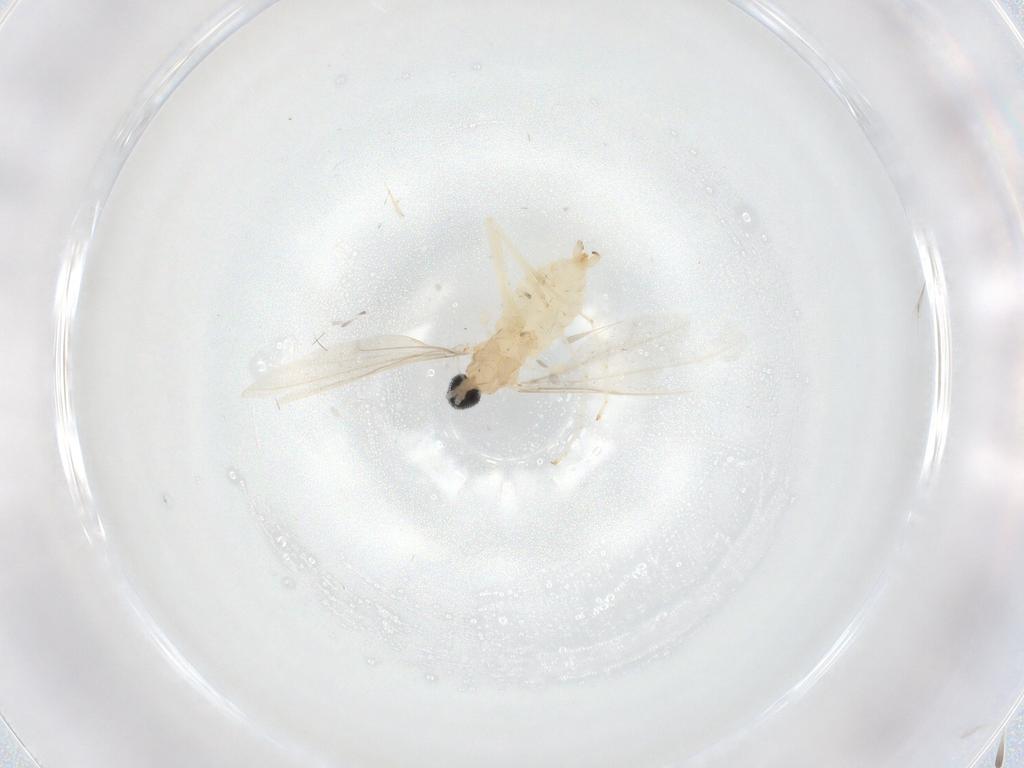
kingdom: Animalia
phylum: Arthropoda
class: Insecta
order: Diptera
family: Cecidomyiidae
